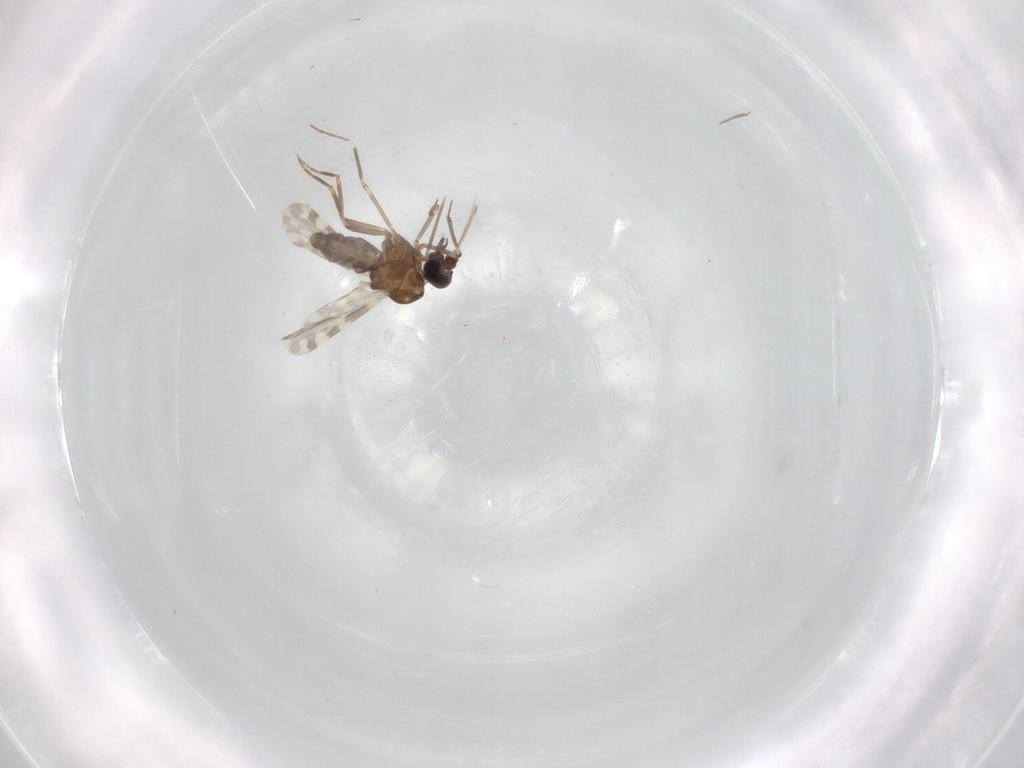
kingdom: Animalia
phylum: Arthropoda
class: Insecta
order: Diptera
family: Ceratopogonidae
